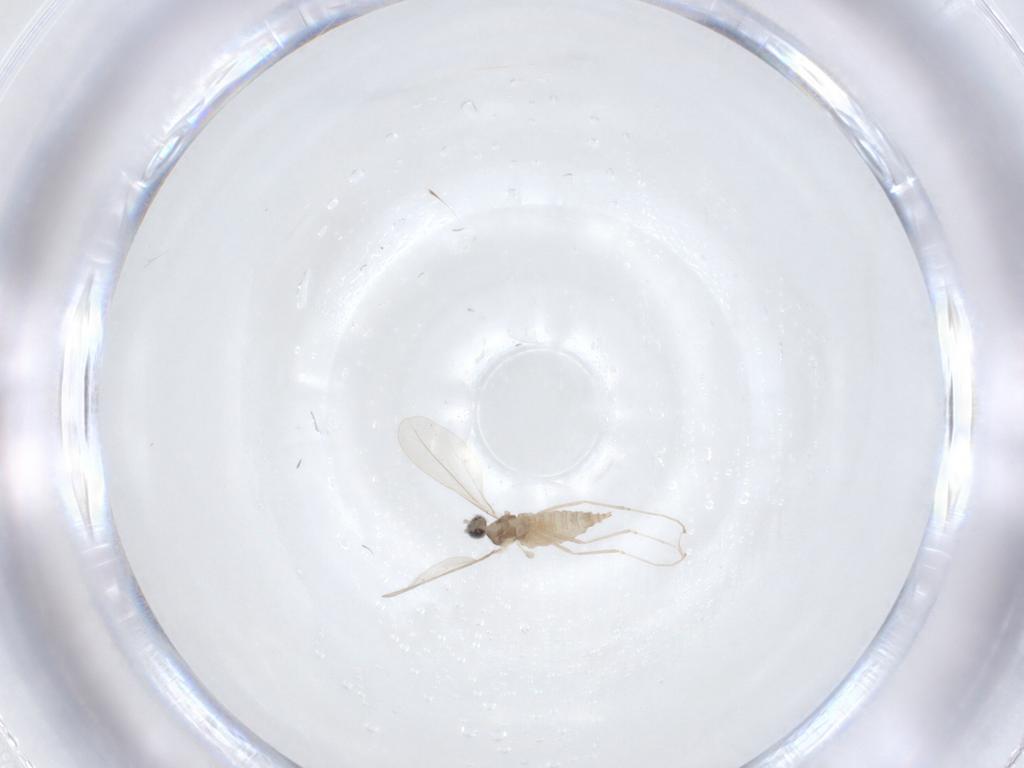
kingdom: Animalia
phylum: Arthropoda
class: Insecta
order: Diptera
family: Cecidomyiidae
